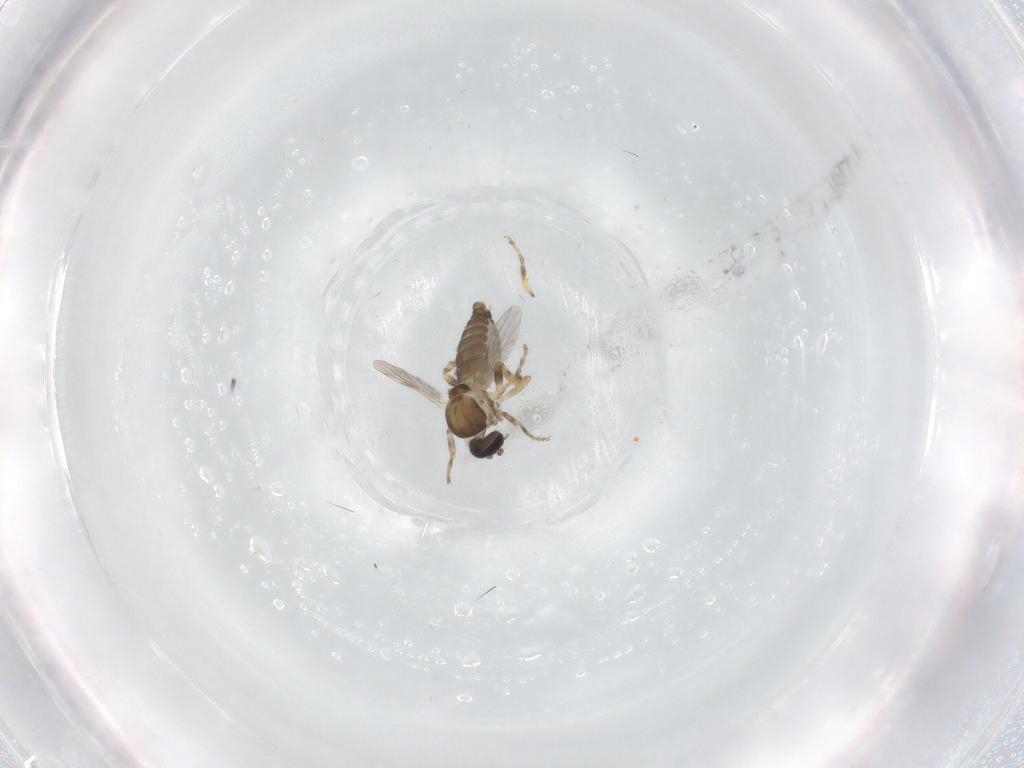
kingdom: Animalia
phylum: Arthropoda
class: Insecta
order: Diptera
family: Ceratopogonidae
